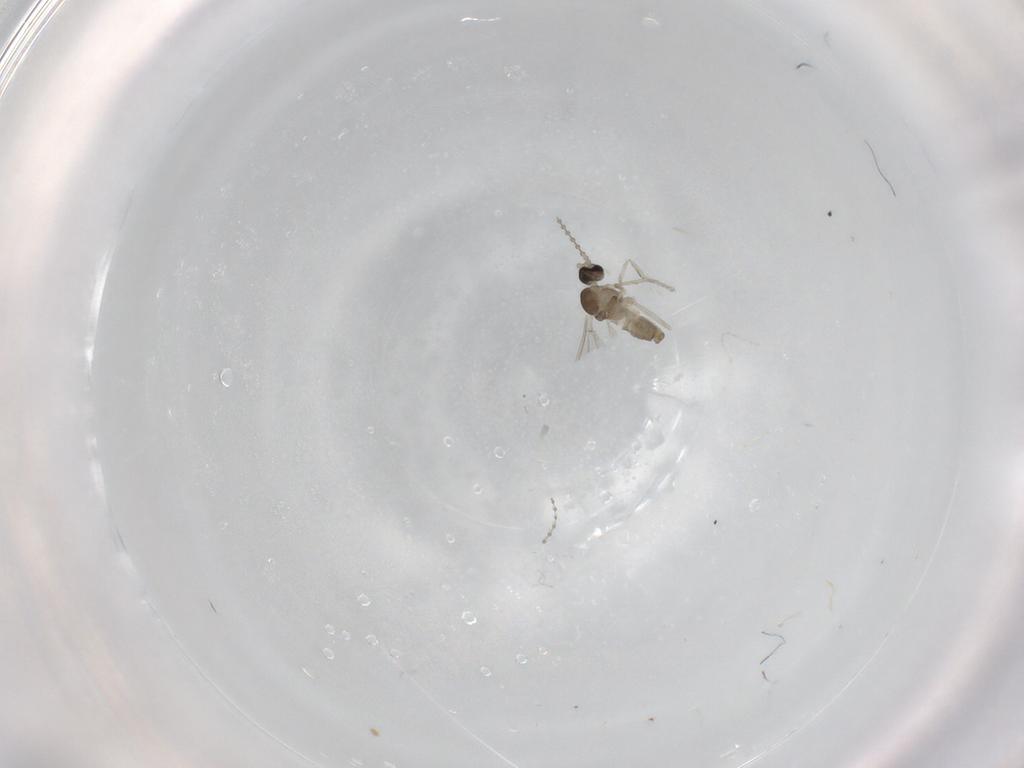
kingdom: Animalia
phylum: Arthropoda
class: Insecta
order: Diptera
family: Cecidomyiidae
